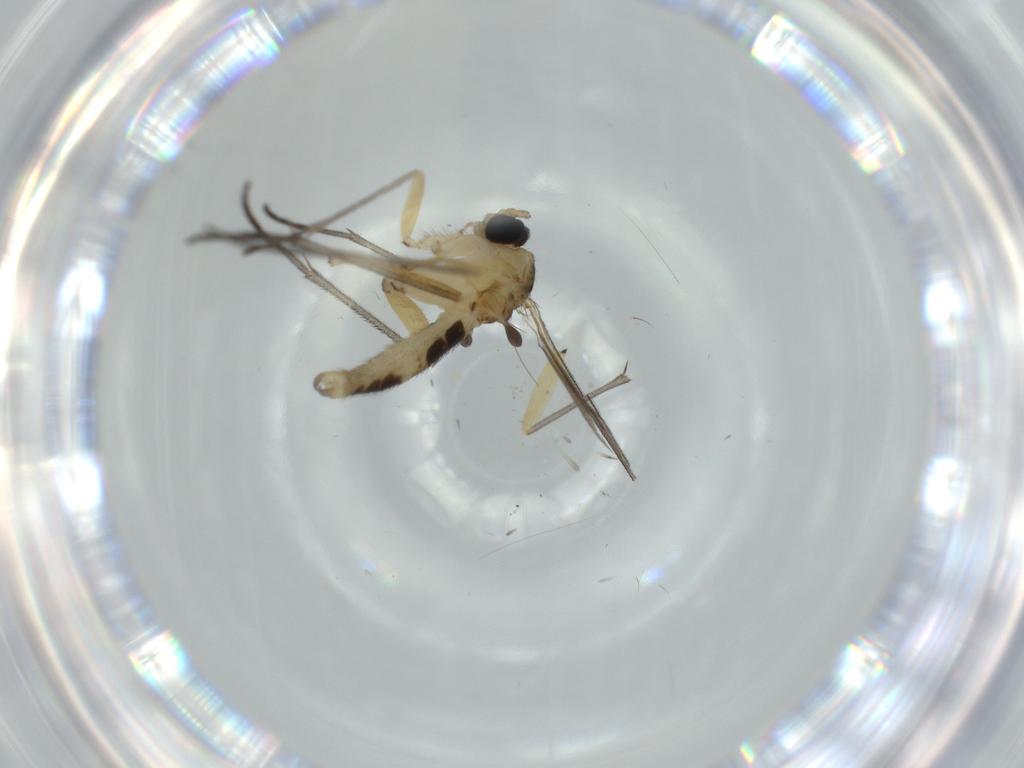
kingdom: Animalia
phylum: Arthropoda
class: Insecta
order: Diptera
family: Sciaridae
